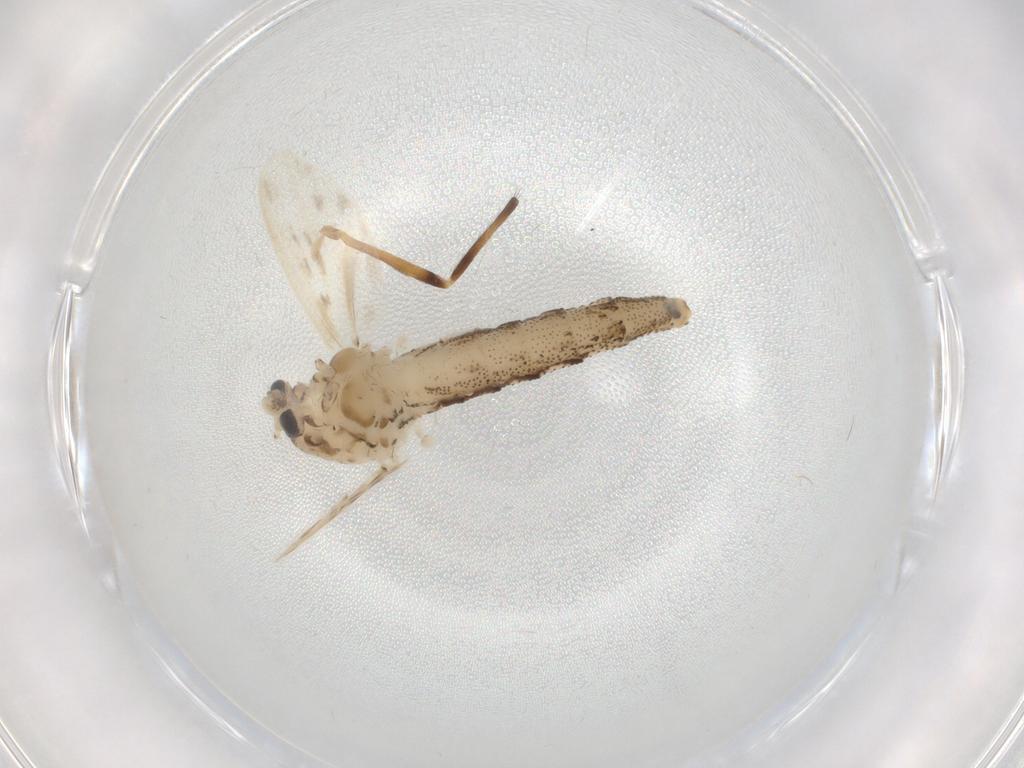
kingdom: Animalia
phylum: Arthropoda
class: Insecta
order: Diptera
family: Chaoboridae
